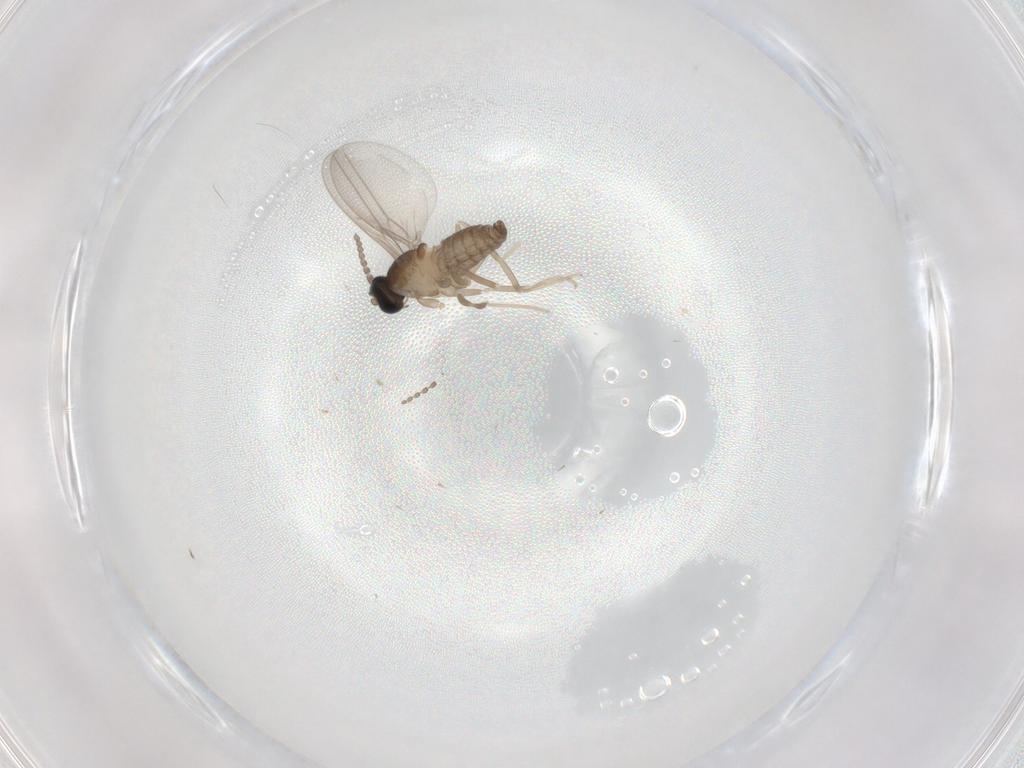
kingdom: Animalia
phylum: Arthropoda
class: Insecta
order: Diptera
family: Cecidomyiidae
